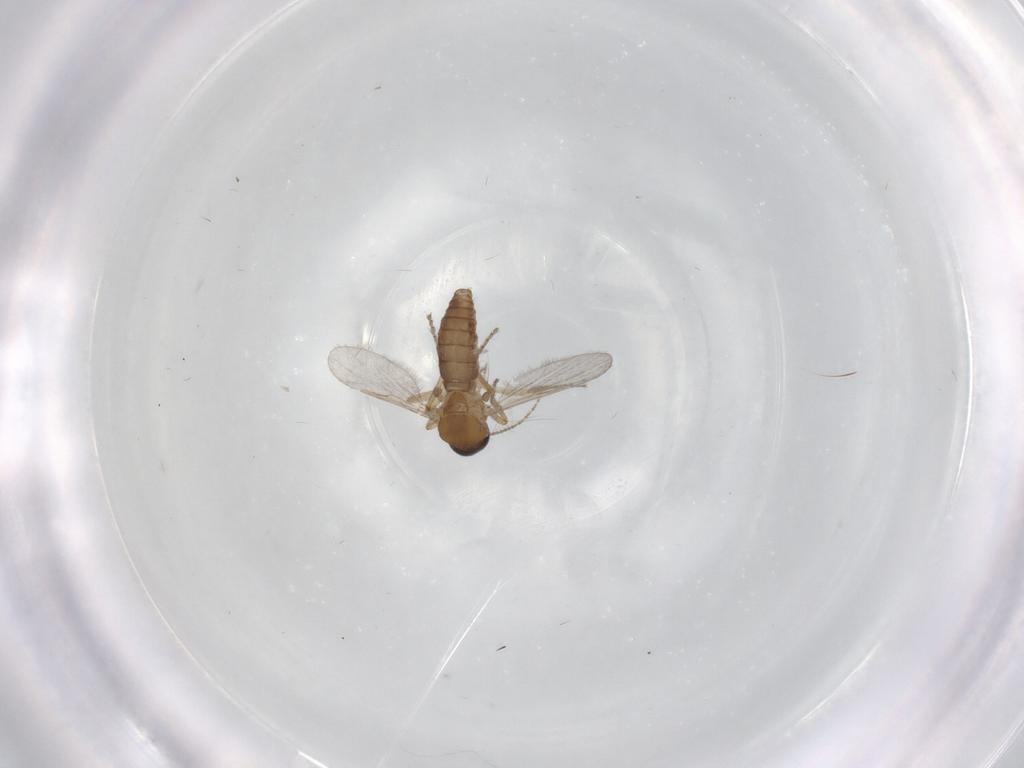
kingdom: Animalia
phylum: Arthropoda
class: Insecta
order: Diptera
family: Ceratopogonidae
